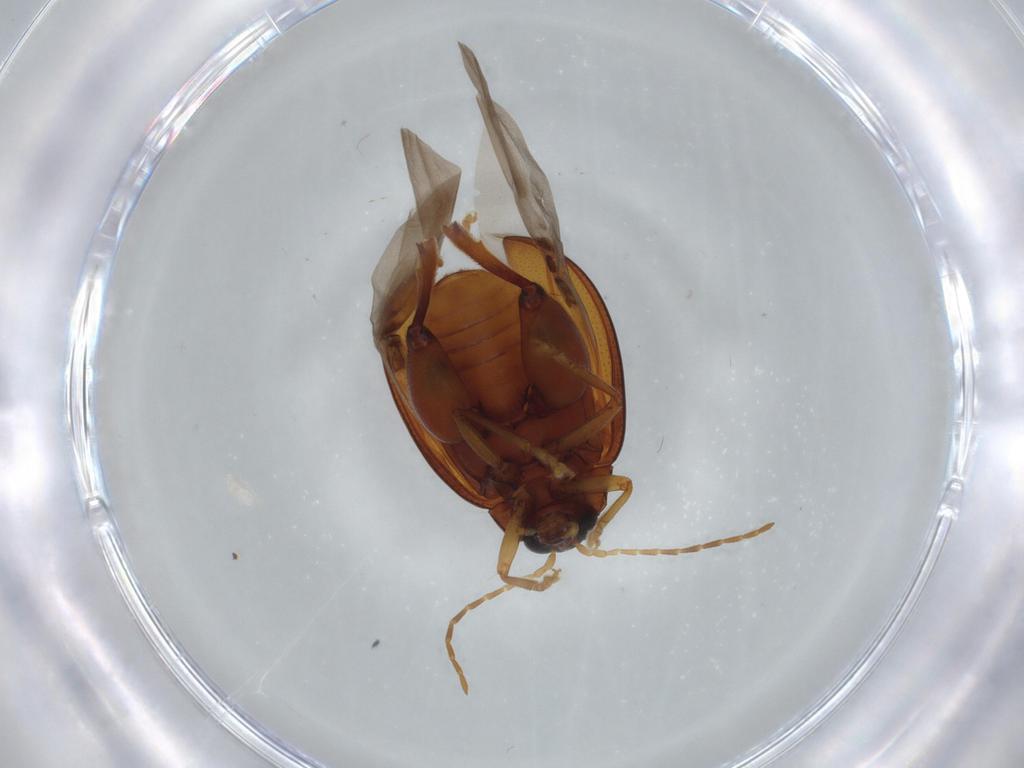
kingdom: Animalia
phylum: Arthropoda
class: Insecta
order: Coleoptera
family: Chrysomelidae
